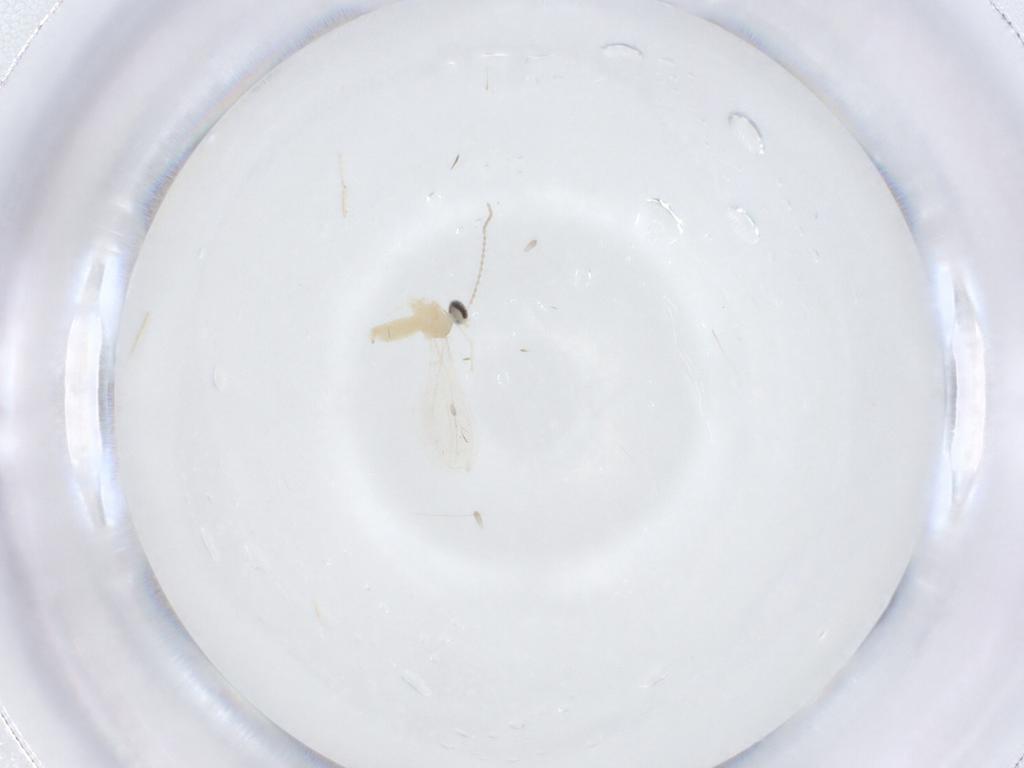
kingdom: Animalia
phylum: Arthropoda
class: Insecta
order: Diptera
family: Cecidomyiidae
